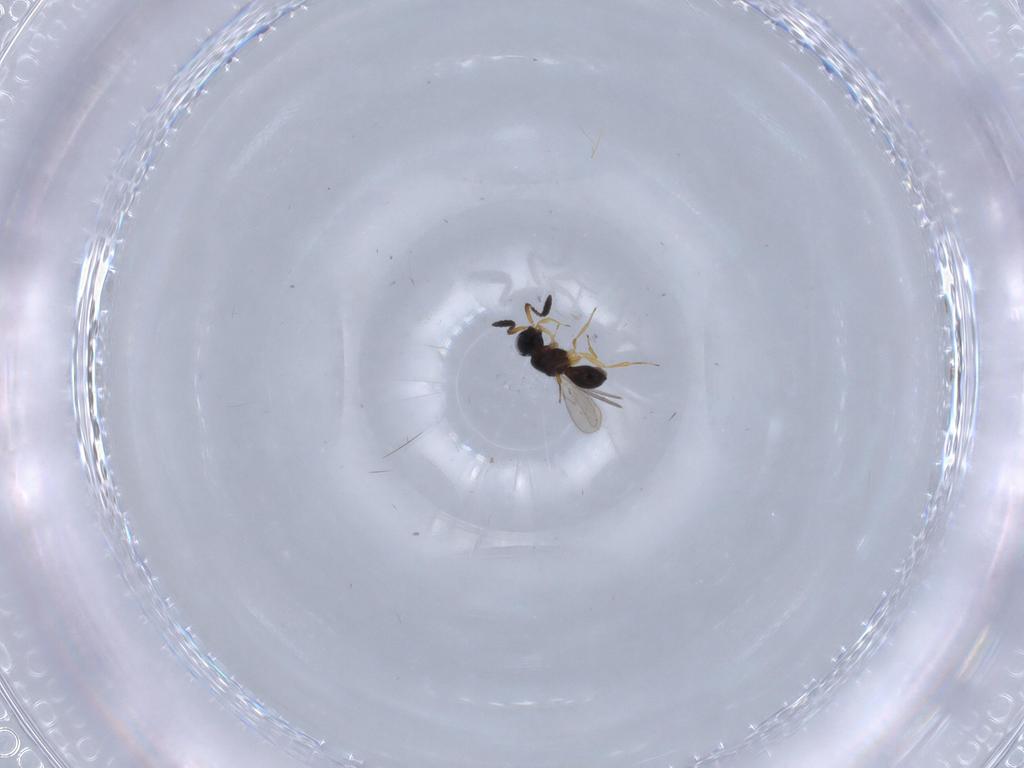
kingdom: Animalia
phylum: Arthropoda
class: Insecta
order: Hymenoptera
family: Scelionidae
